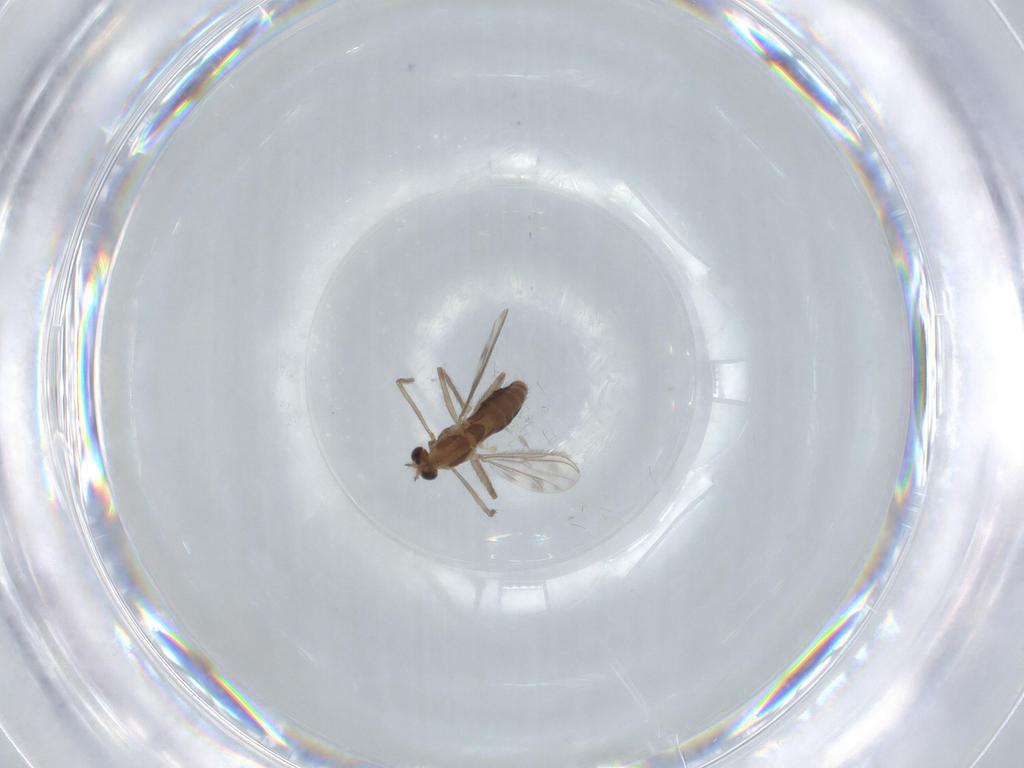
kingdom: Animalia
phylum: Arthropoda
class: Insecta
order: Diptera
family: Chironomidae
